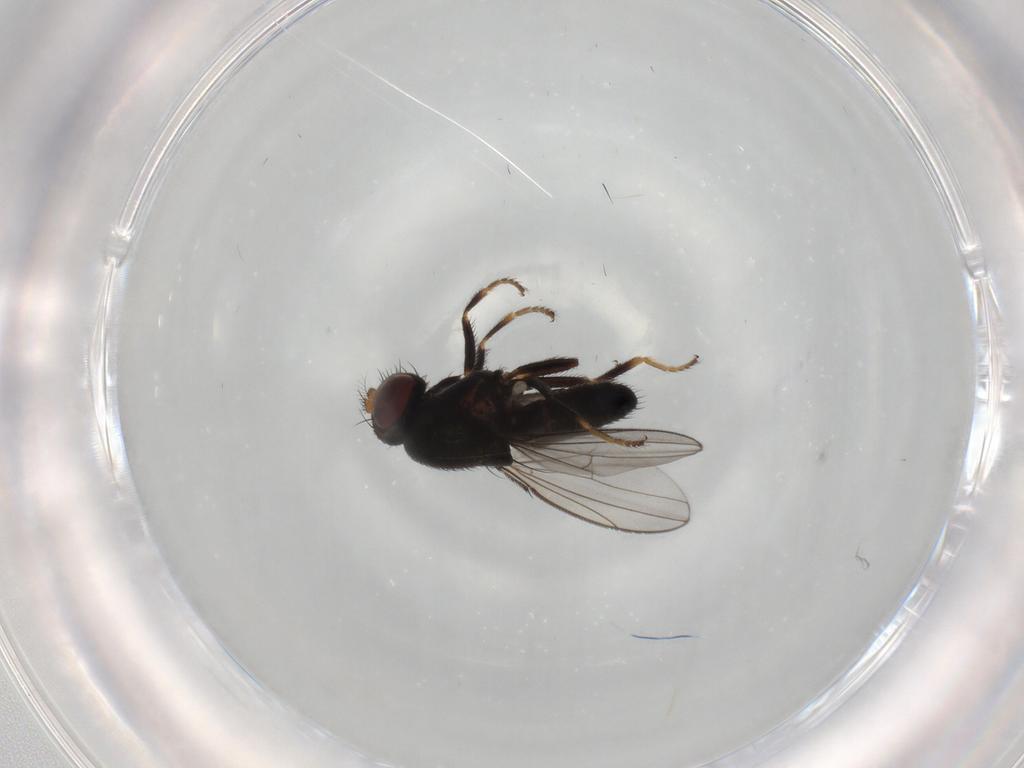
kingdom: Animalia
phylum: Arthropoda
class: Insecta
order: Diptera
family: Ephydridae
